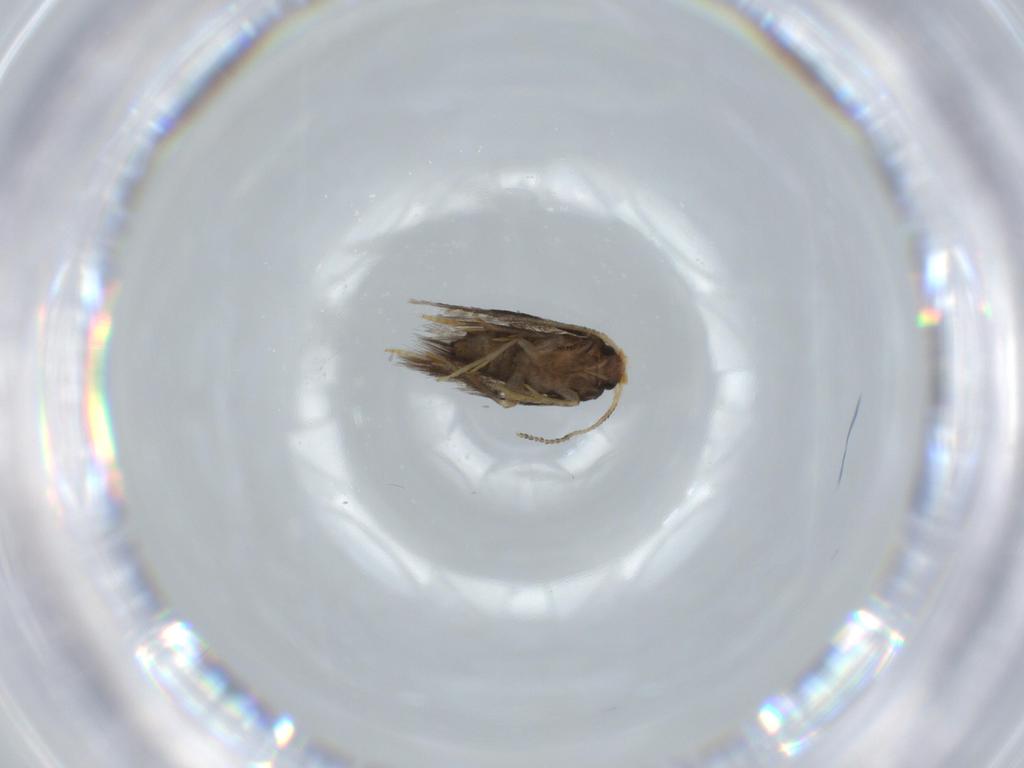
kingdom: Animalia
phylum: Arthropoda
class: Insecta
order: Lepidoptera
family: Nepticulidae
